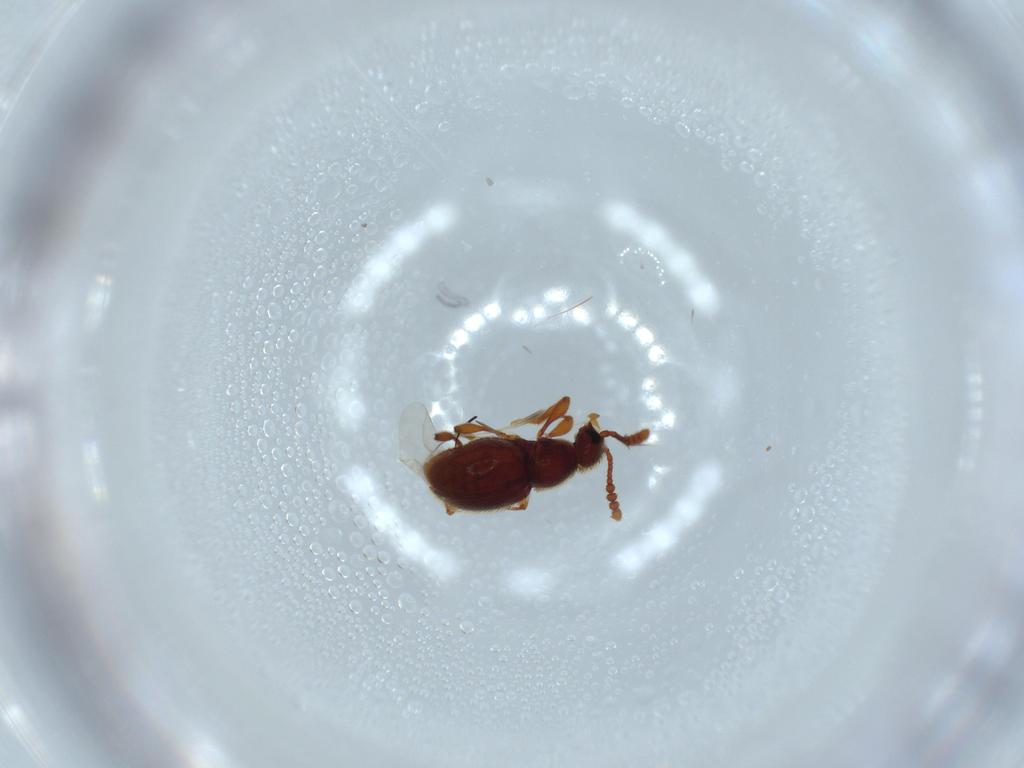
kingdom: Animalia
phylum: Arthropoda
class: Insecta
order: Coleoptera
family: Staphylinidae
